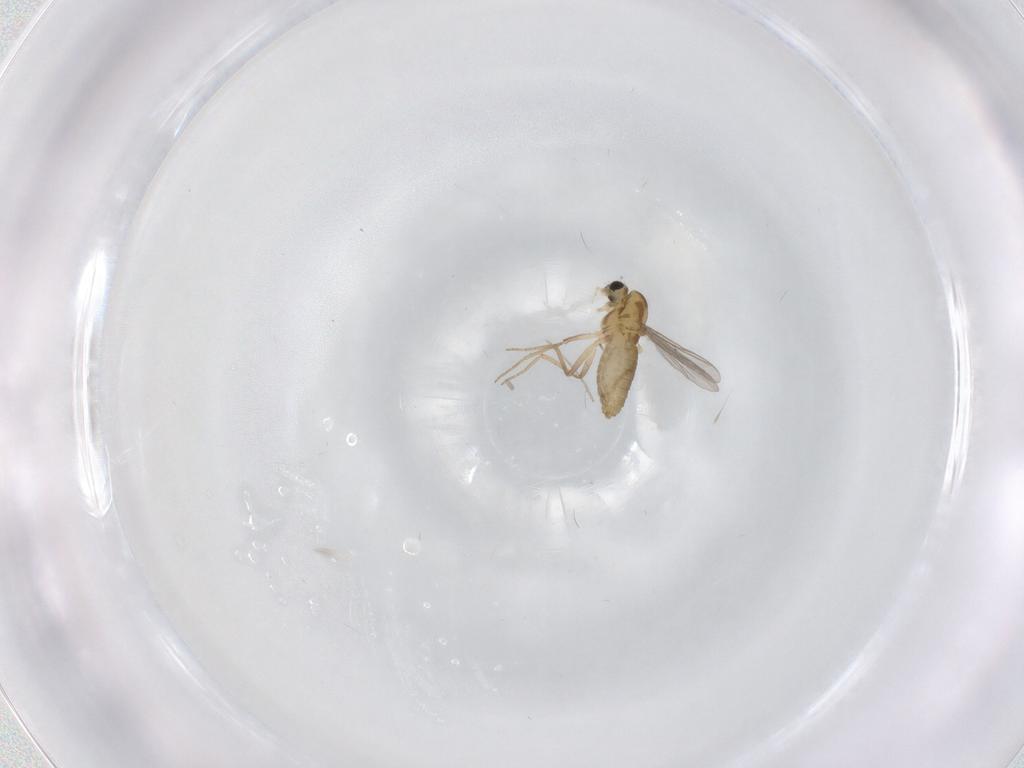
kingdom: Animalia
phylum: Arthropoda
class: Insecta
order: Diptera
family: Chironomidae
